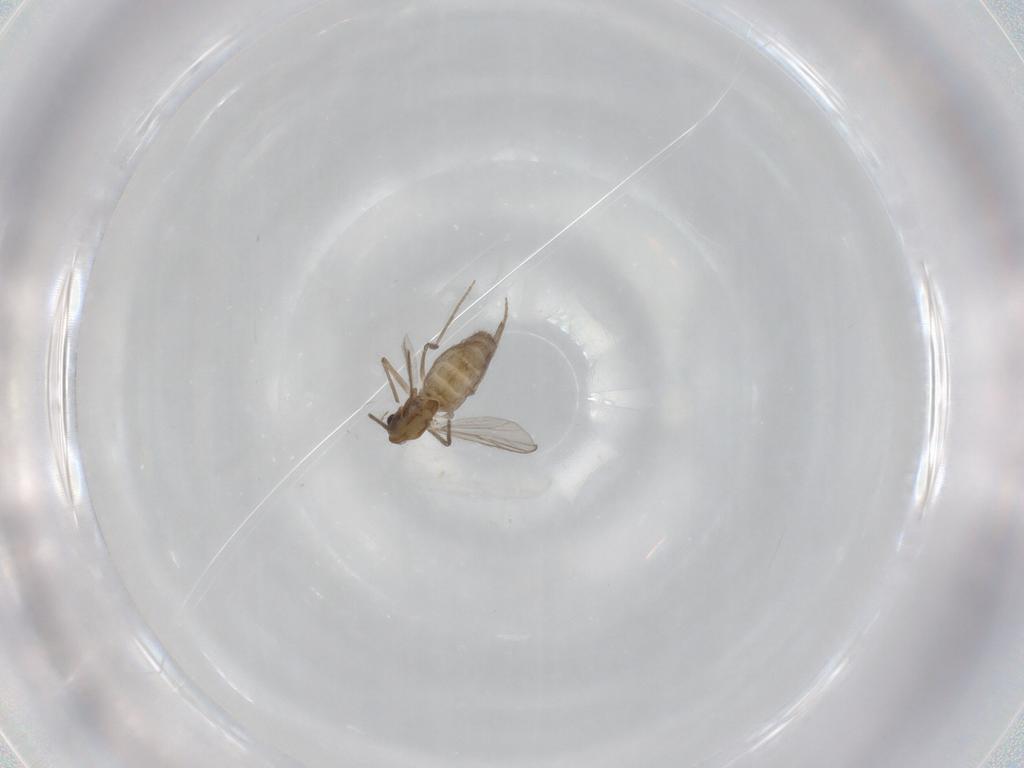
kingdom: Animalia
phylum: Arthropoda
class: Insecta
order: Diptera
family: Chironomidae
